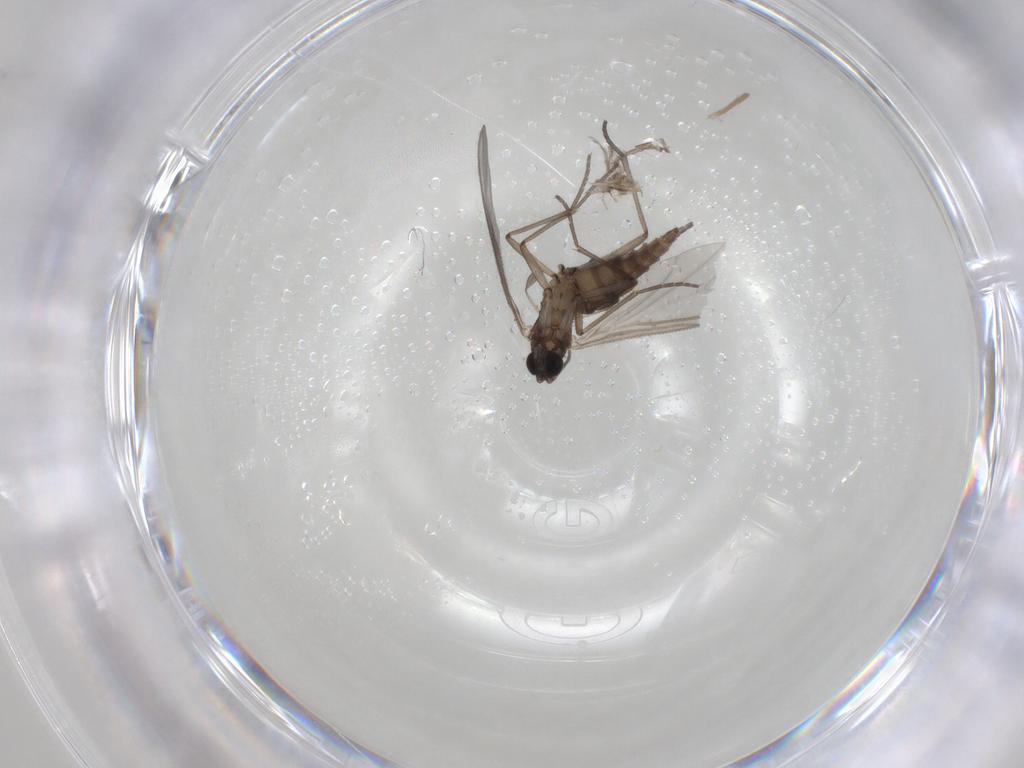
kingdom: Animalia
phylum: Arthropoda
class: Insecta
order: Diptera
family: Sciaridae
